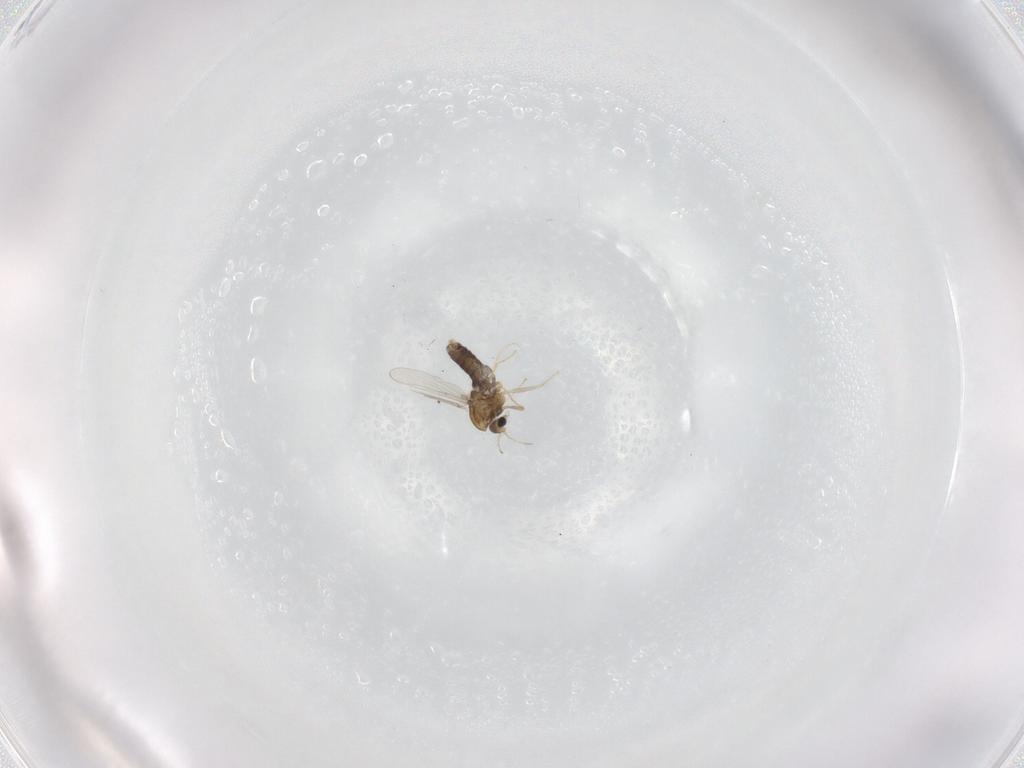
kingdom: Animalia
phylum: Arthropoda
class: Insecta
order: Diptera
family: Chironomidae
